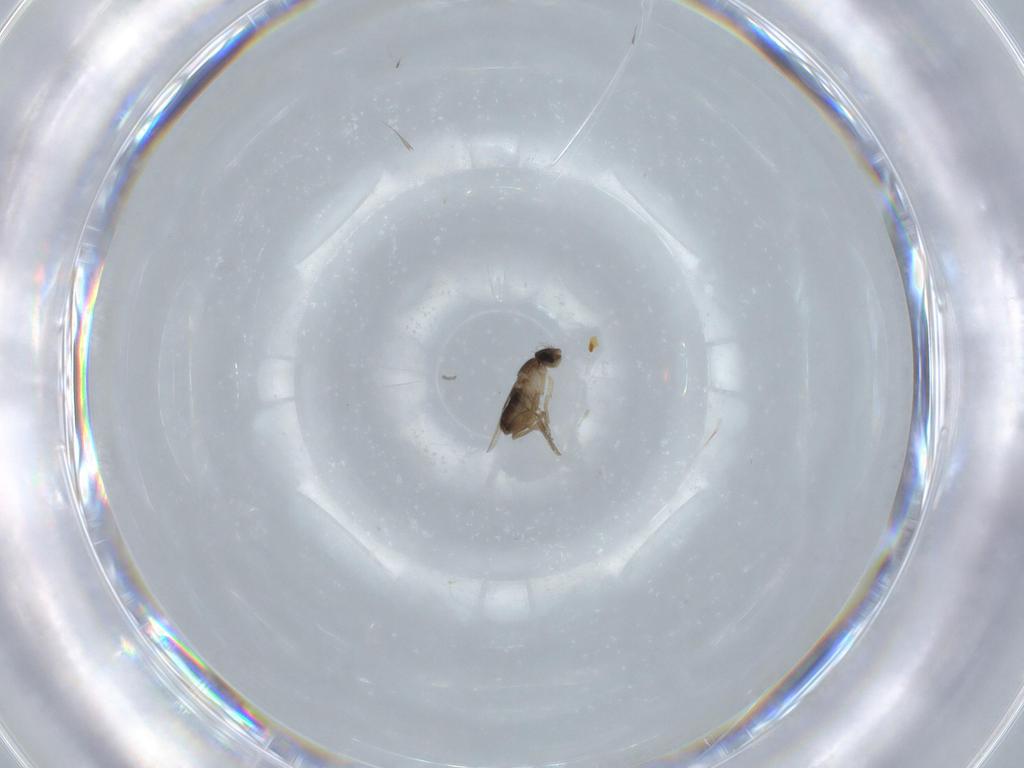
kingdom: Animalia
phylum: Arthropoda
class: Insecta
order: Diptera
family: Phoridae
